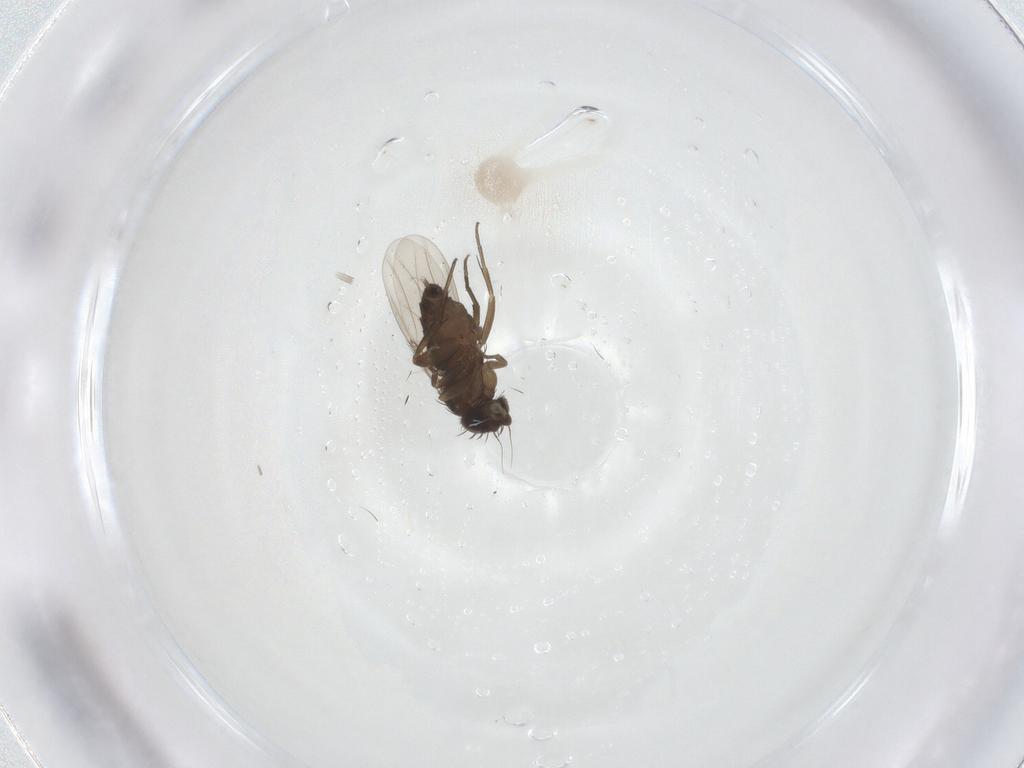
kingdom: Animalia
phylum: Arthropoda
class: Insecta
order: Diptera
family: Phoridae
